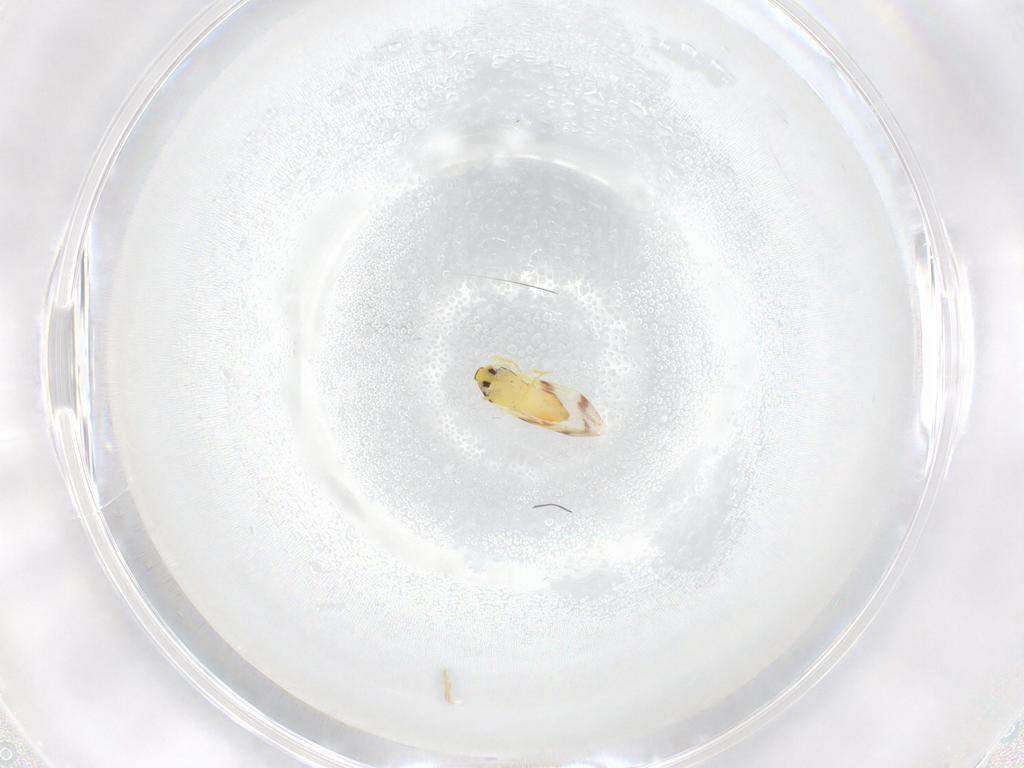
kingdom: Animalia
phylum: Arthropoda
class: Insecta
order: Hemiptera
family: Aleyrodidae
